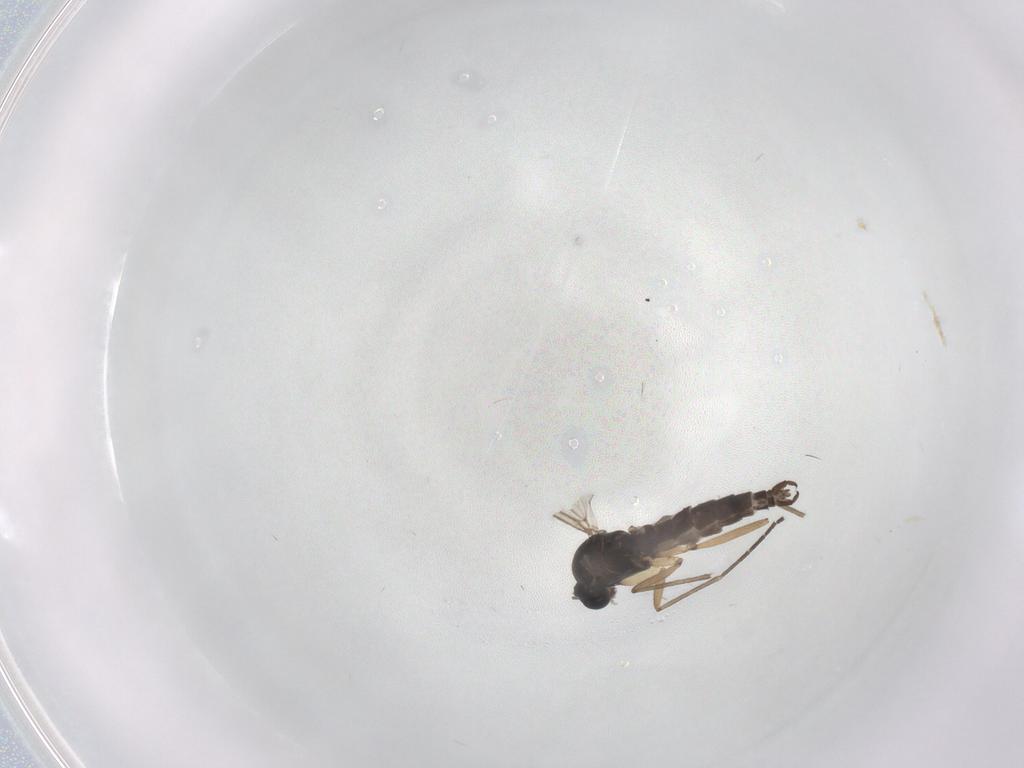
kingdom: Animalia
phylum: Arthropoda
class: Insecta
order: Diptera
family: Sciaridae
